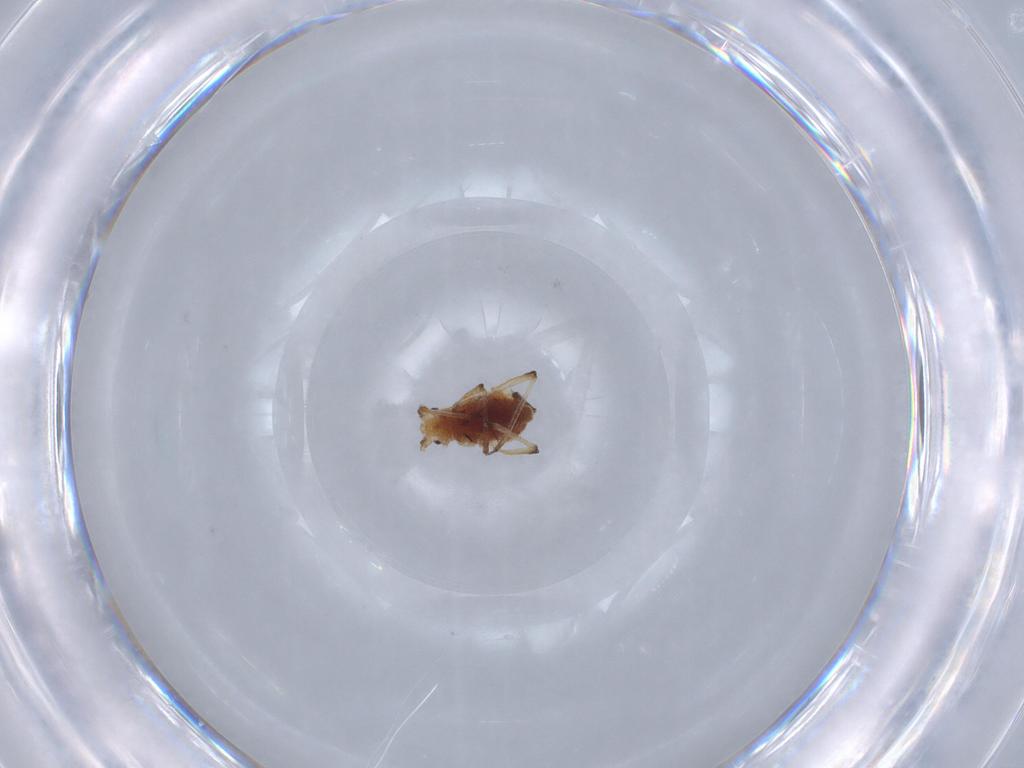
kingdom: Animalia
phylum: Arthropoda
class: Insecta
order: Hemiptera
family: Aphididae
